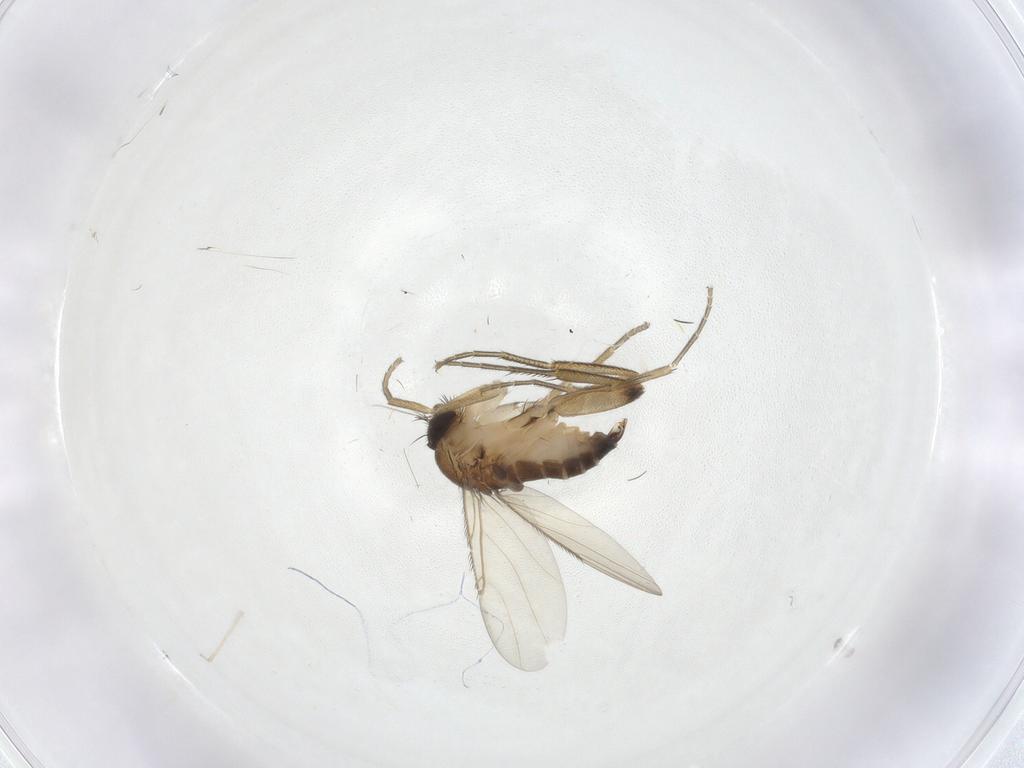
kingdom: Animalia
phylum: Arthropoda
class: Insecta
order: Diptera
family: Phoridae
